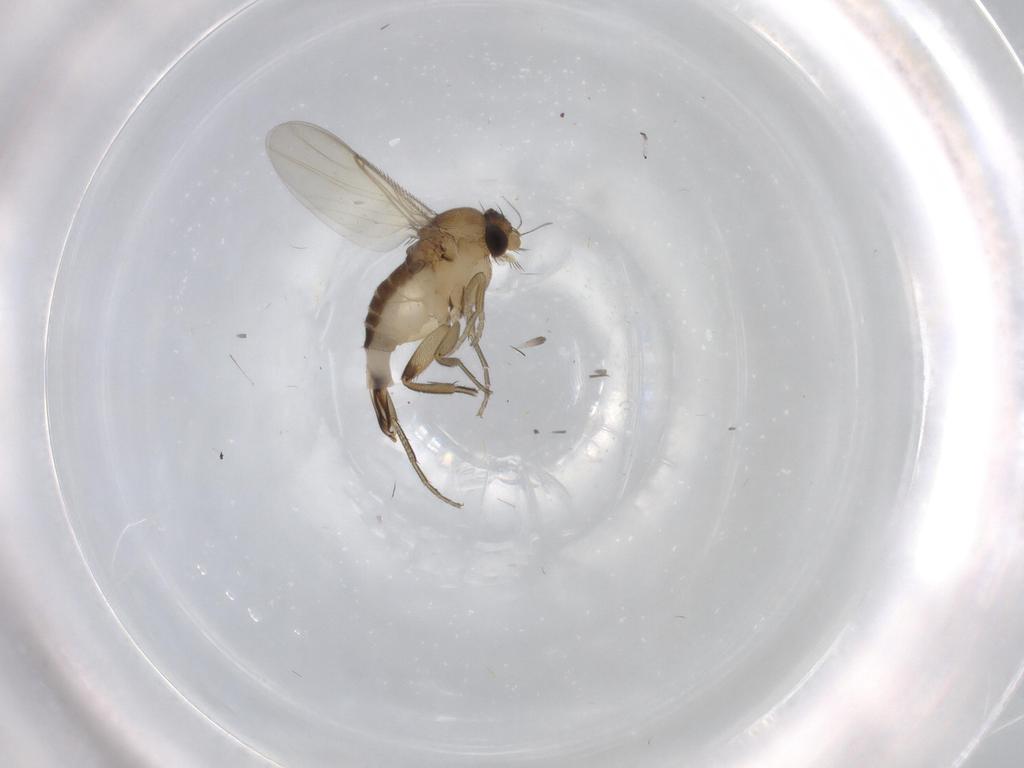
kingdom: Animalia
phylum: Arthropoda
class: Insecta
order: Diptera
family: Phoridae
